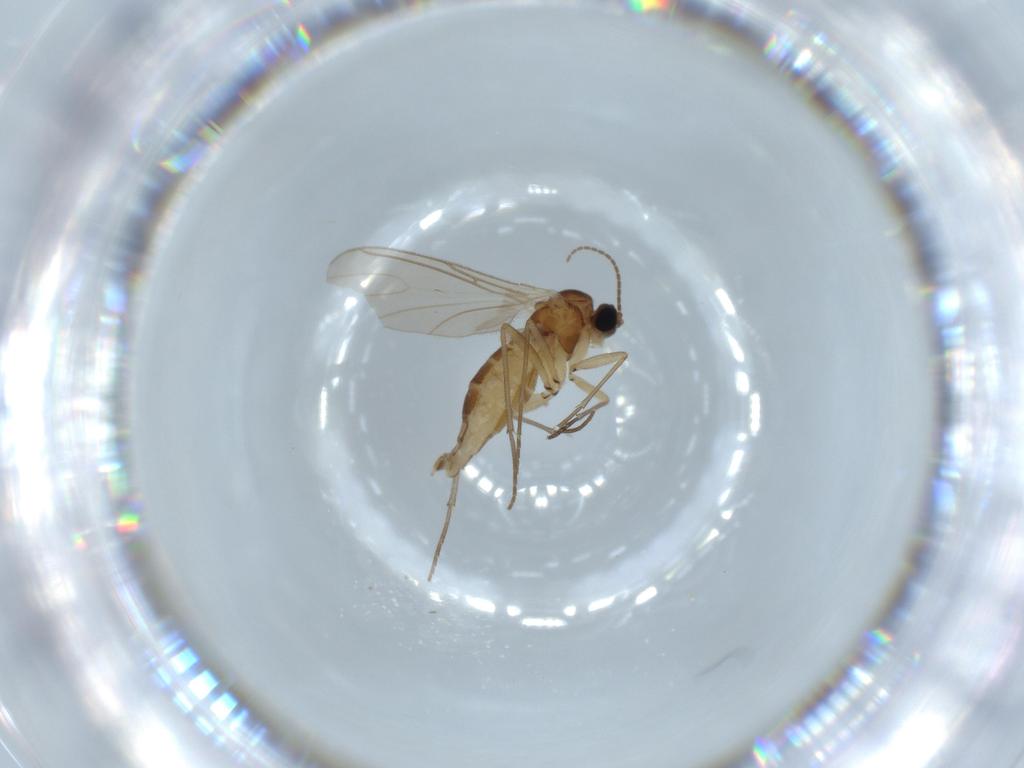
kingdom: Animalia
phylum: Arthropoda
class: Insecta
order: Diptera
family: Sciaridae
